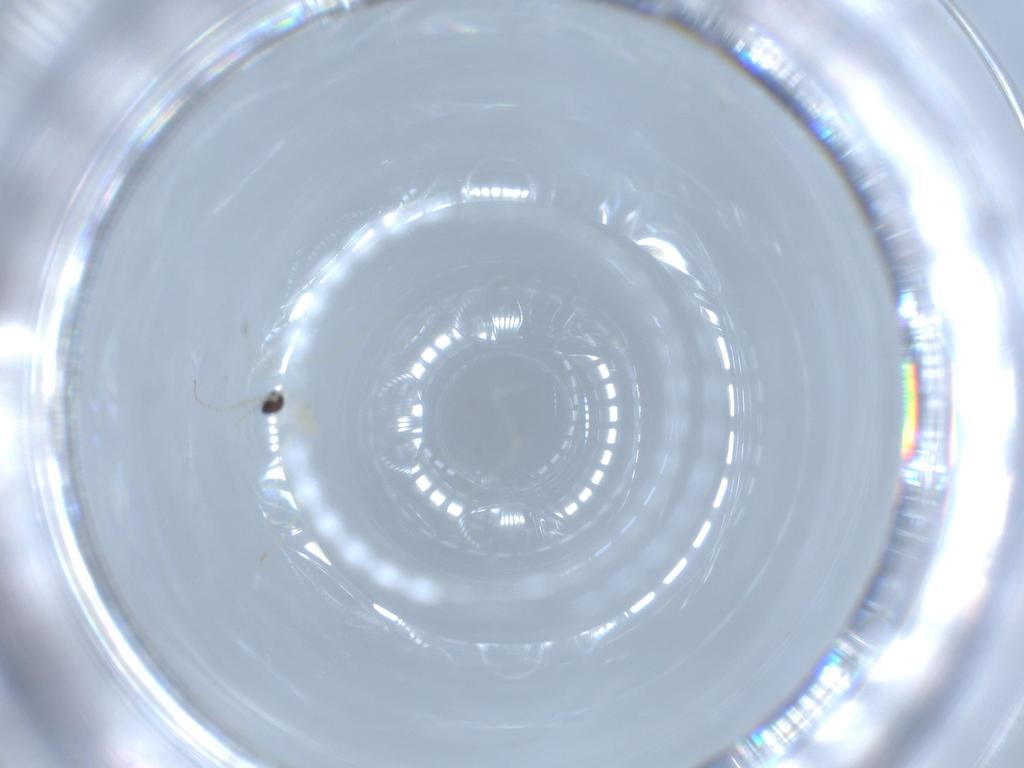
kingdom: Animalia
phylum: Arthropoda
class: Insecta
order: Diptera
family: Cecidomyiidae
